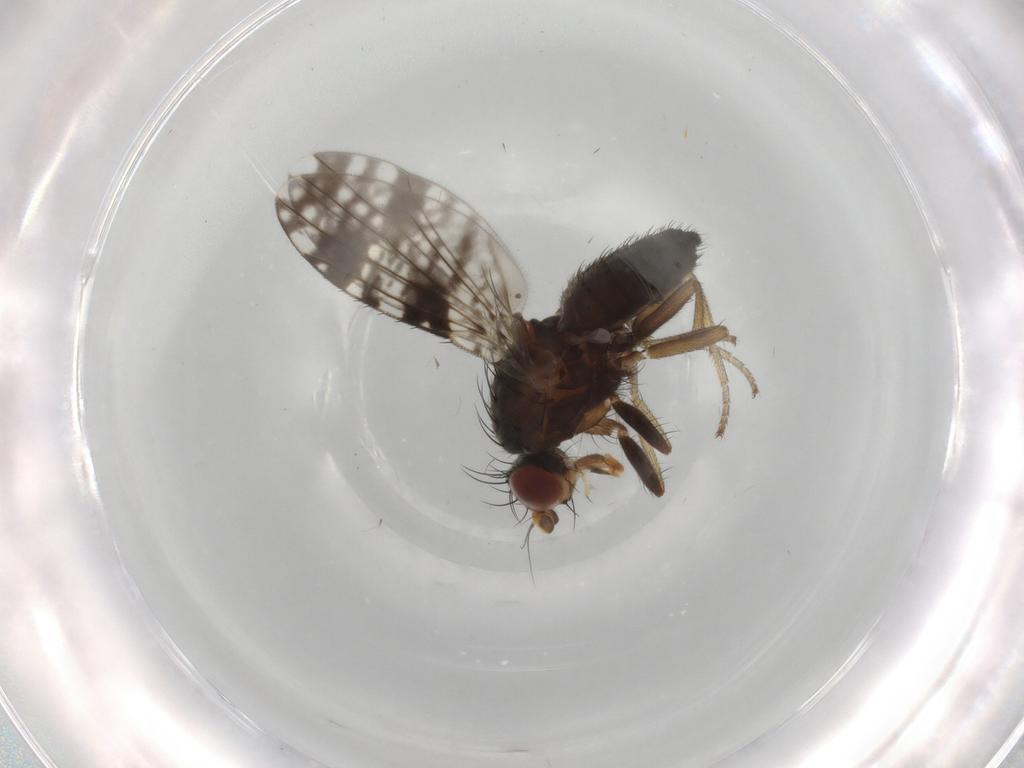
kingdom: Animalia
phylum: Arthropoda
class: Insecta
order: Diptera
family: Tephritidae
